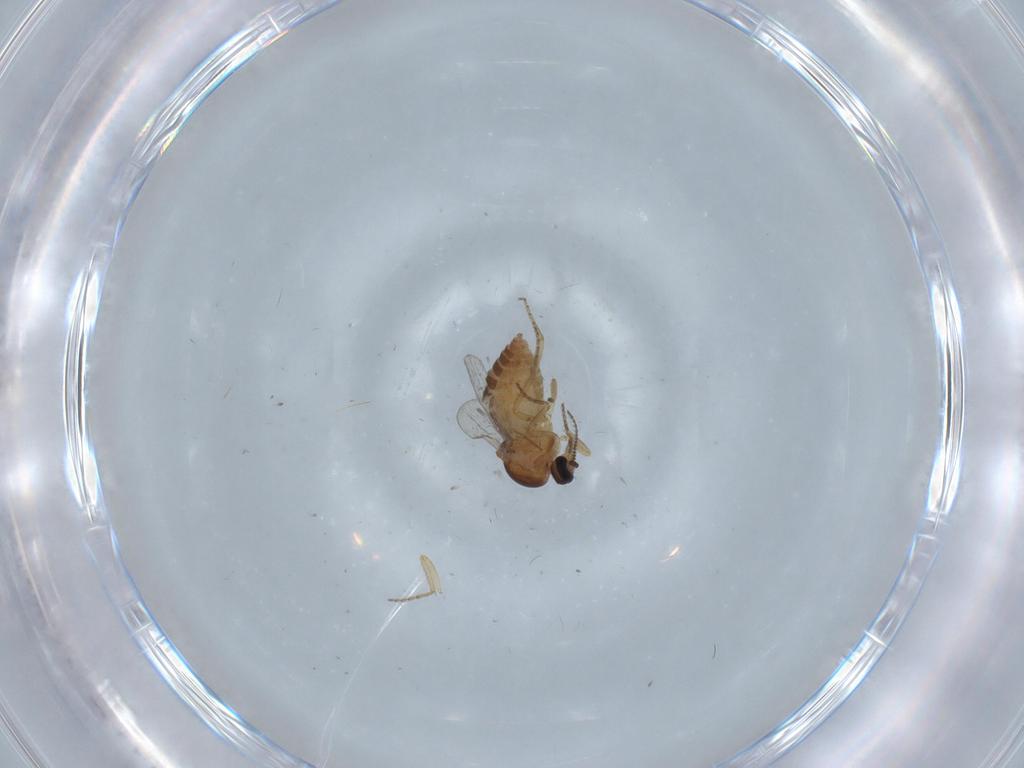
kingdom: Animalia
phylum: Arthropoda
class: Insecta
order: Diptera
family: Ceratopogonidae
